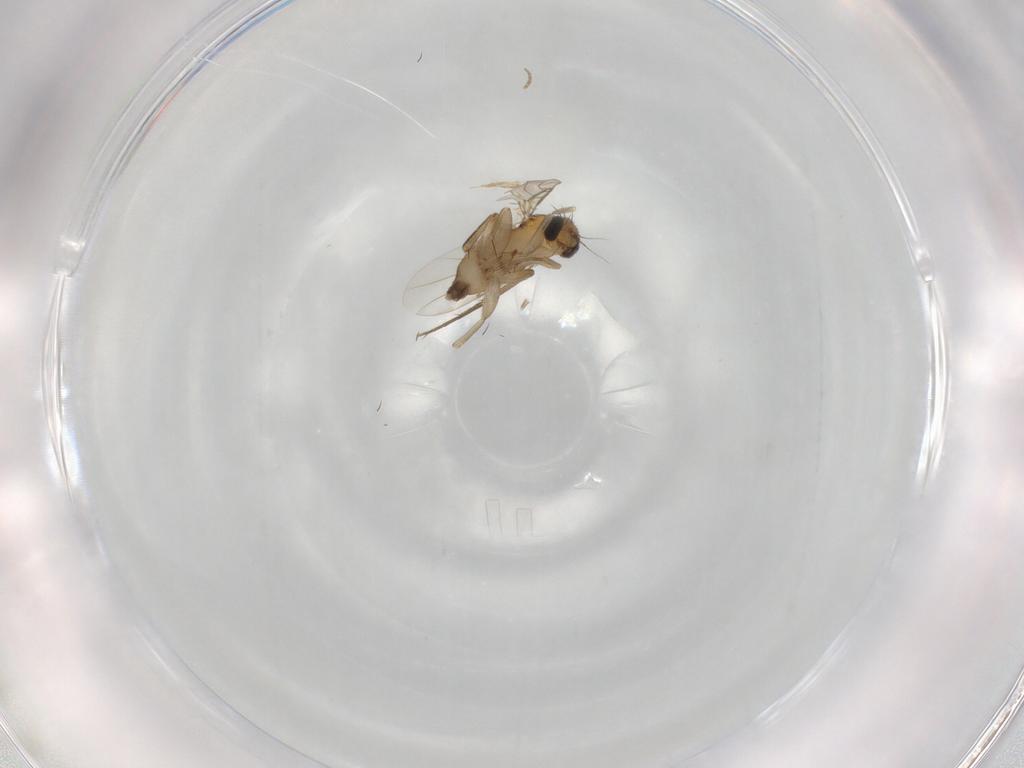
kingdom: Animalia
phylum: Arthropoda
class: Insecta
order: Diptera
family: Phoridae
